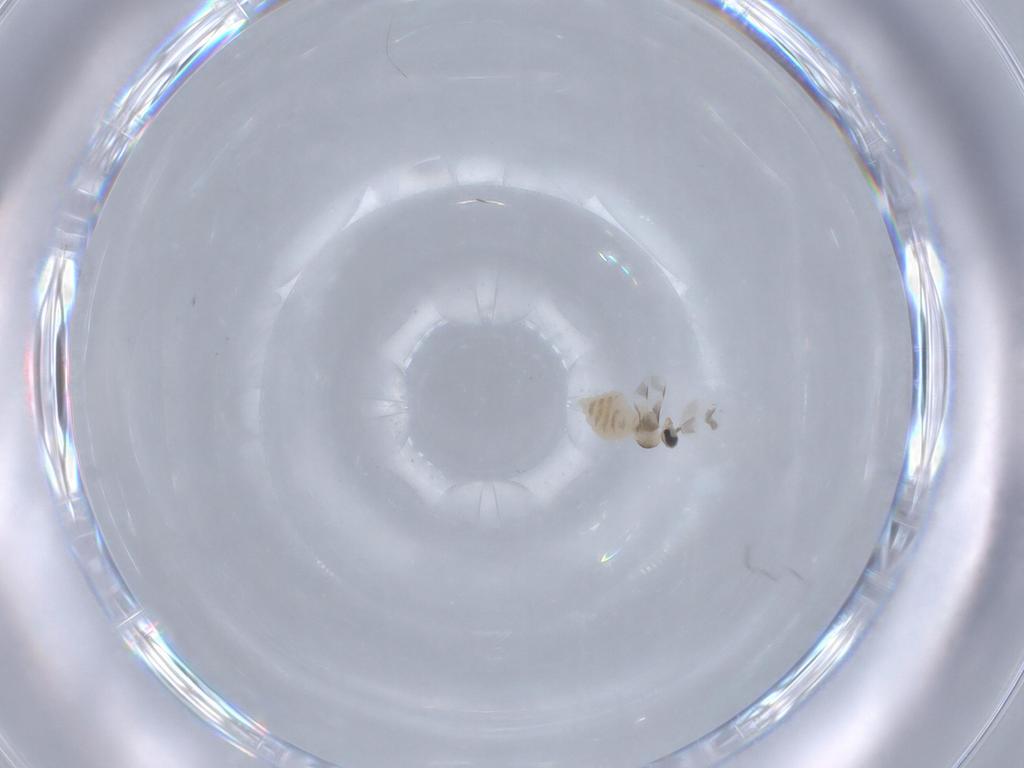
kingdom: Animalia
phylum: Arthropoda
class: Insecta
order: Diptera
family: Cecidomyiidae
